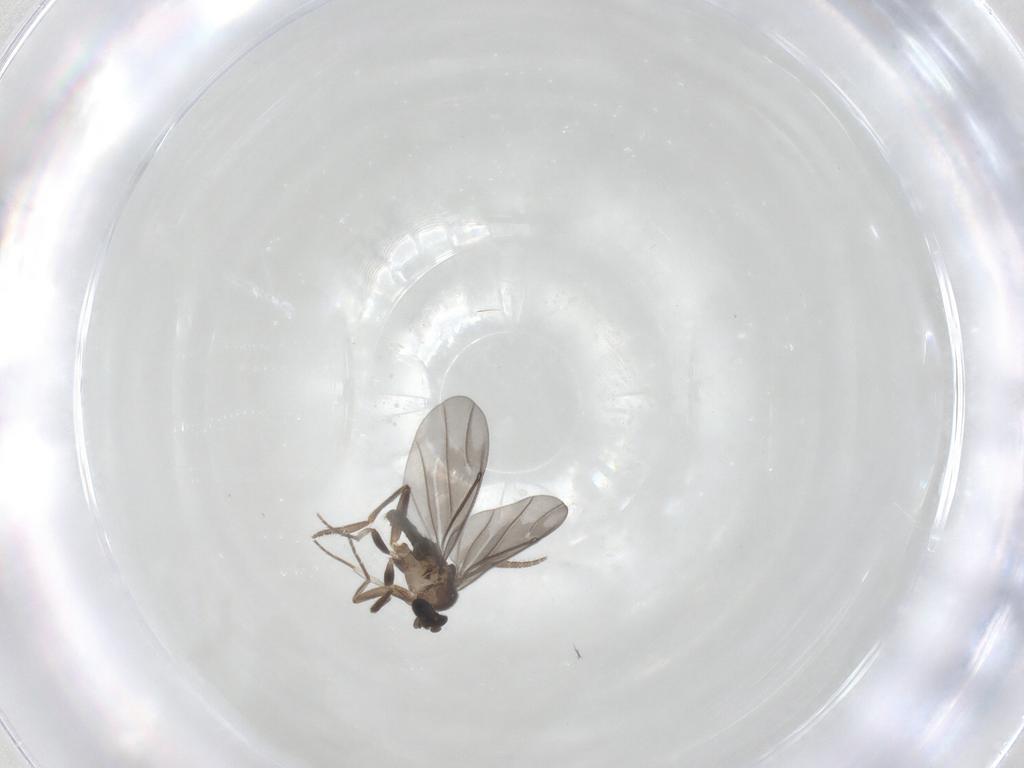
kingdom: Animalia
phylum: Arthropoda
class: Insecta
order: Diptera
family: Phoridae
